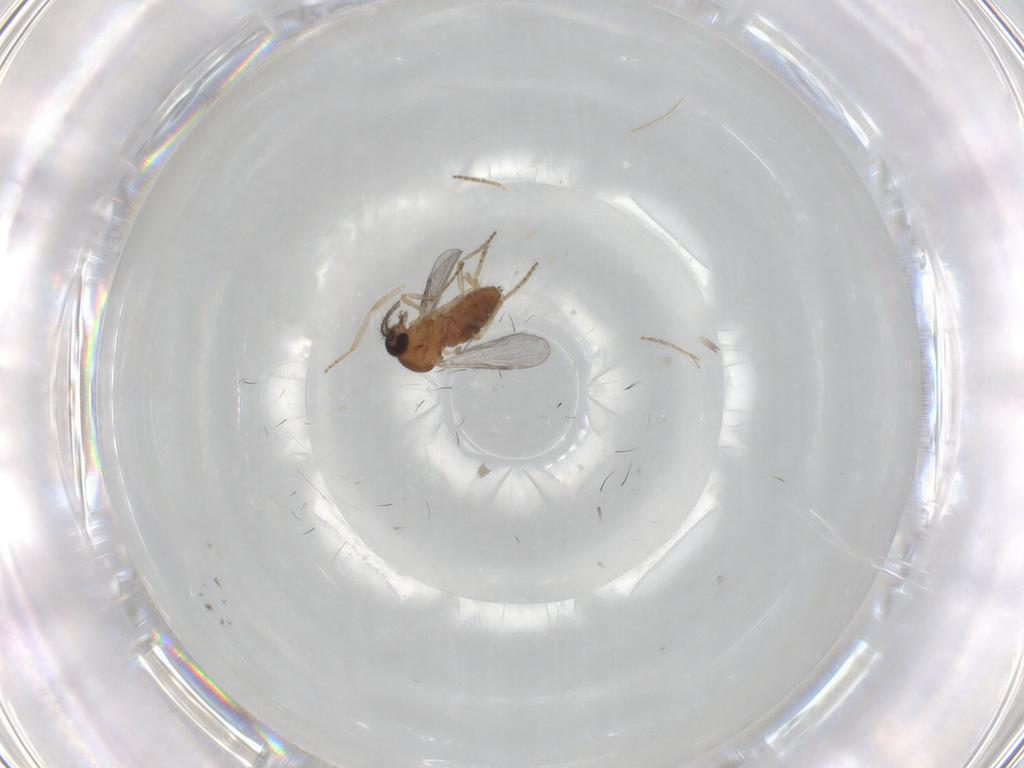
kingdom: Animalia
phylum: Arthropoda
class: Insecta
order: Diptera
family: Ceratopogonidae
